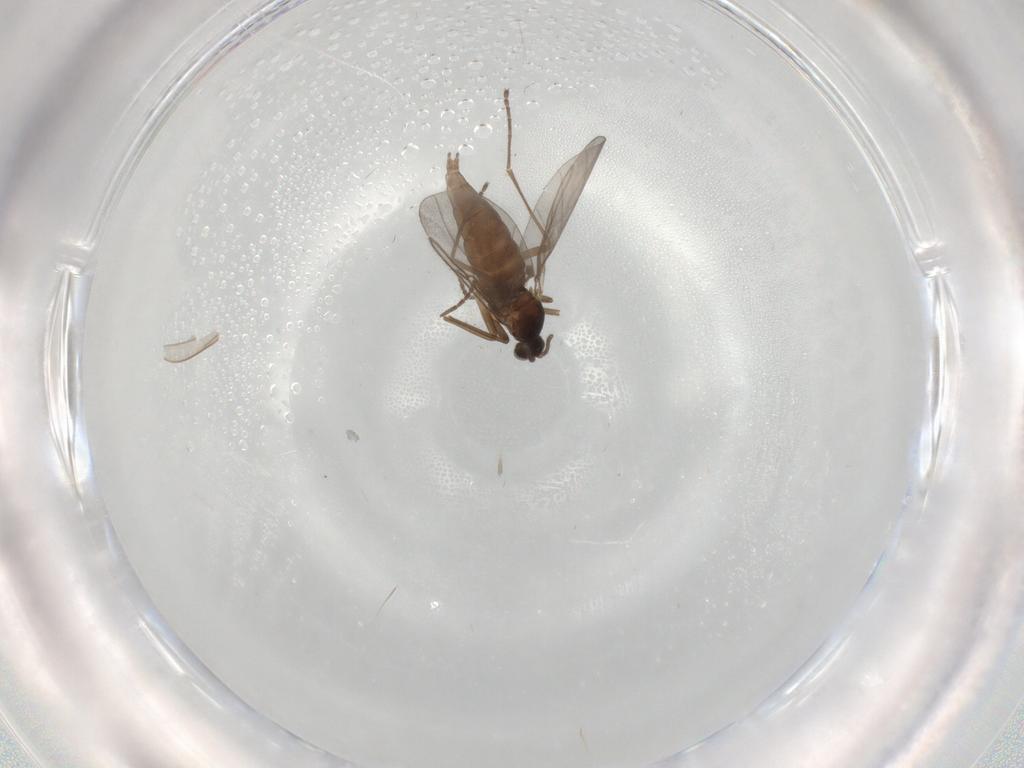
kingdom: Animalia
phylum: Arthropoda
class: Insecta
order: Diptera
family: Cecidomyiidae
